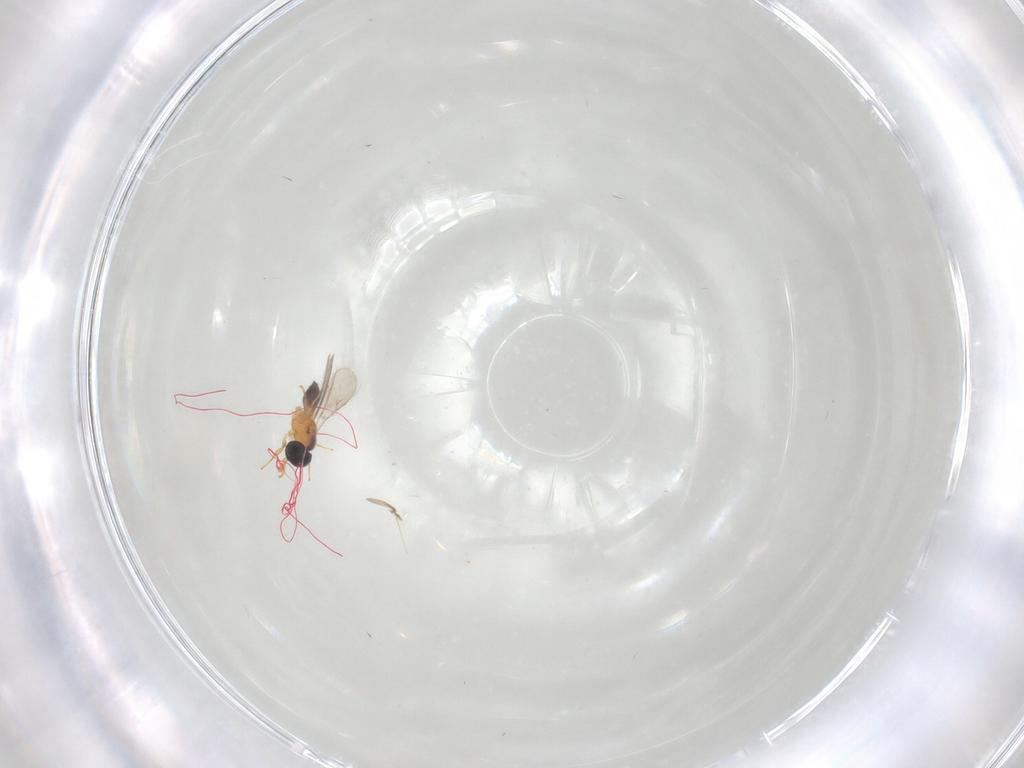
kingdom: Animalia
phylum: Arthropoda
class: Insecta
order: Hymenoptera
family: Scelionidae
